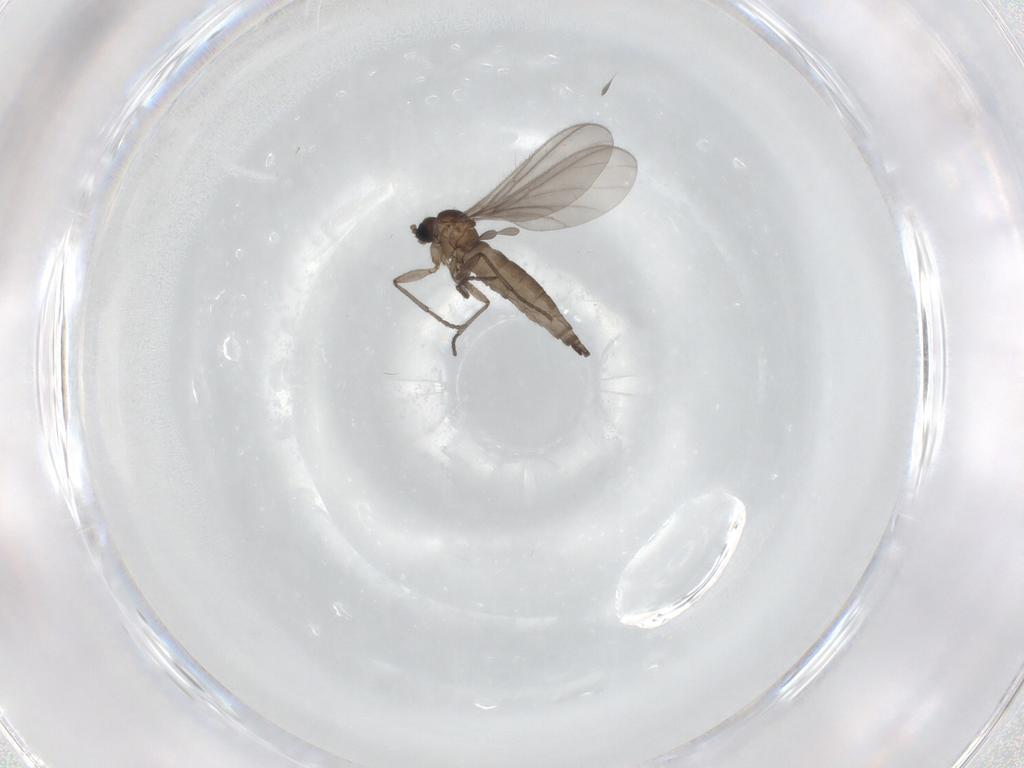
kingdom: Animalia
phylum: Arthropoda
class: Insecta
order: Diptera
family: Sciaridae
